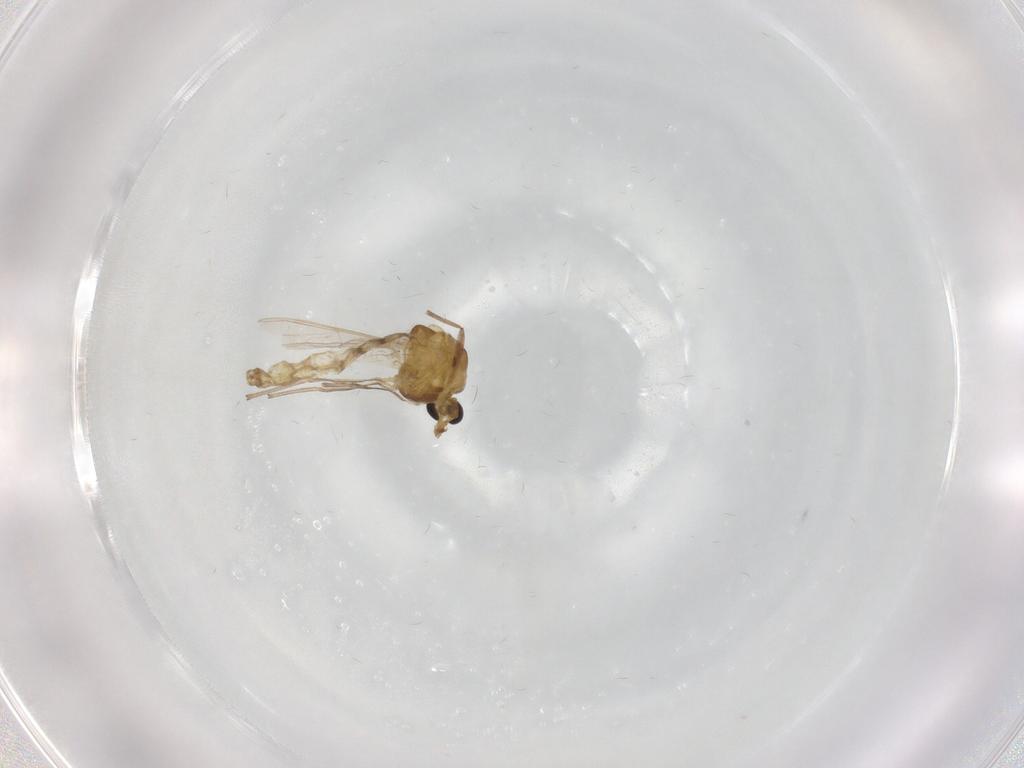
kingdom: Animalia
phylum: Arthropoda
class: Insecta
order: Diptera
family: Chironomidae
